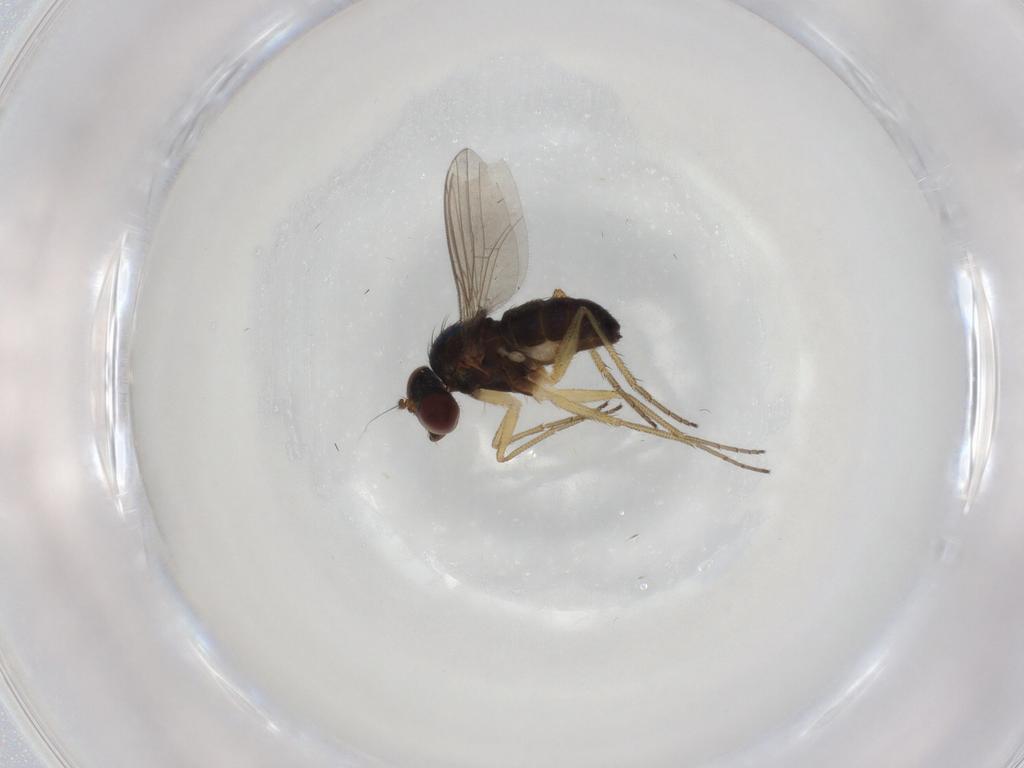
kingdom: Animalia
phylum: Arthropoda
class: Insecta
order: Diptera
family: Dolichopodidae
